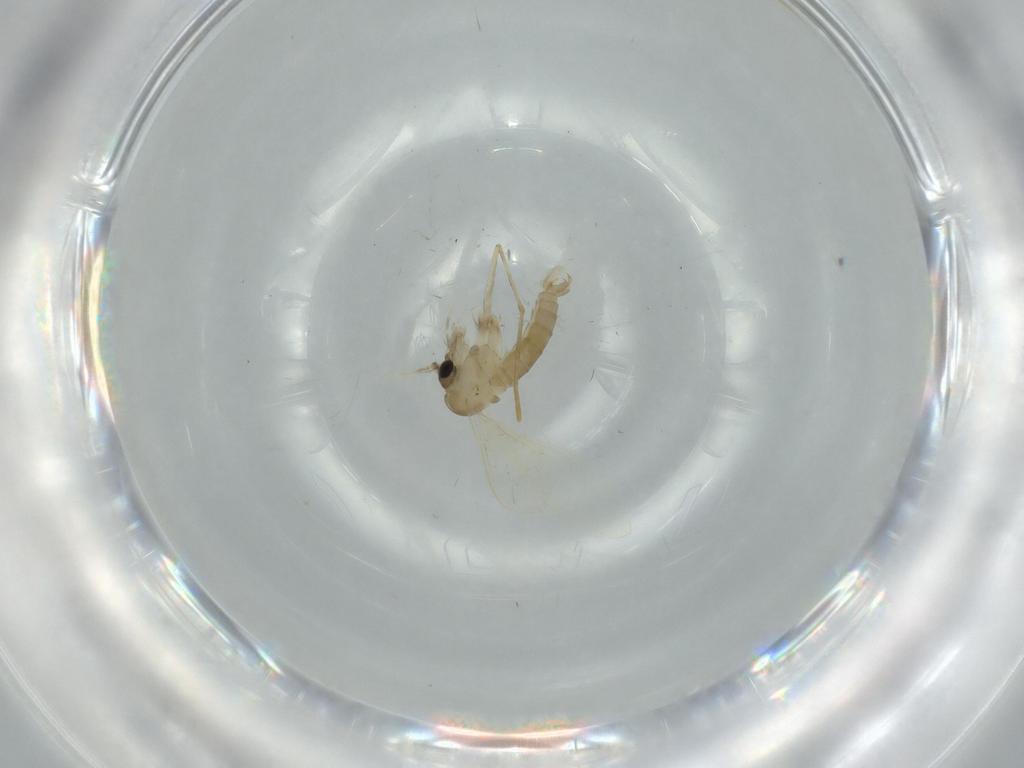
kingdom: Animalia
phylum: Arthropoda
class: Insecta
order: Diptera
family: Psychodidae
